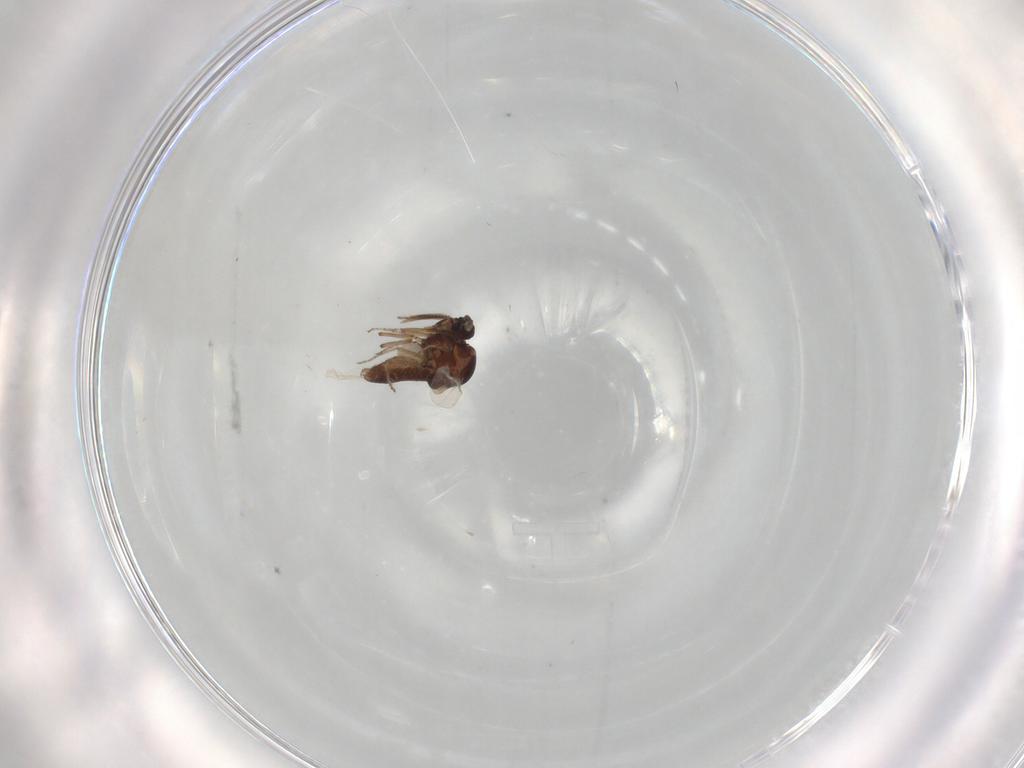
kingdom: Animalia
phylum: Arthropoda
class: Insecta
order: Diptera
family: Ceratopogonidae
